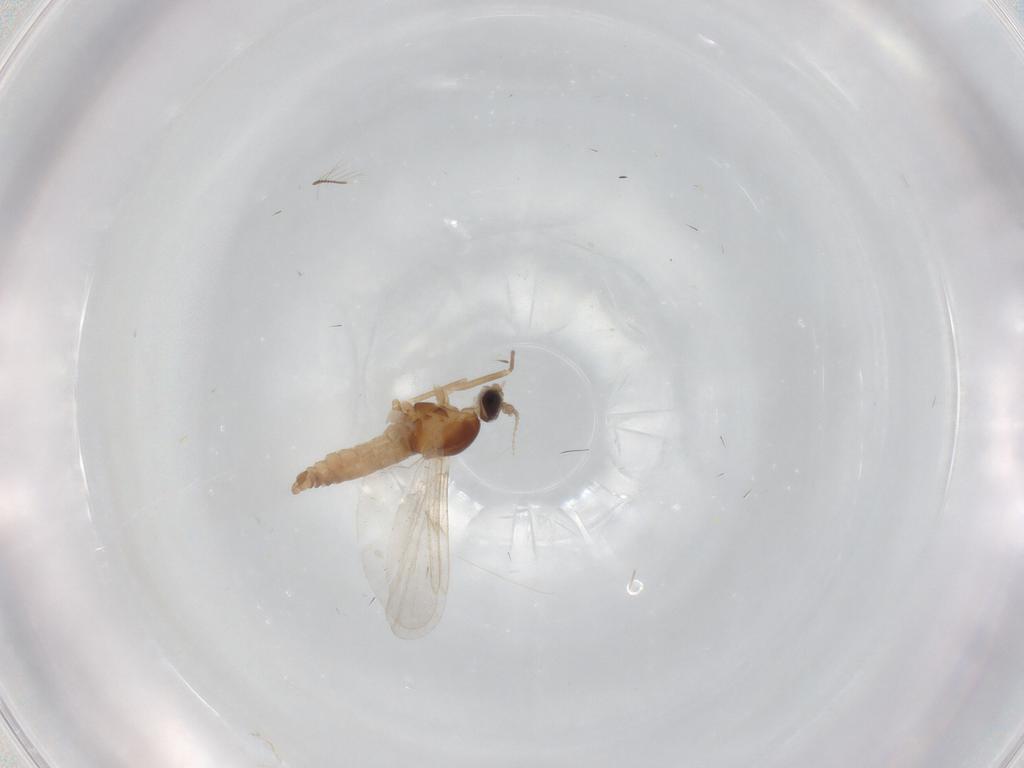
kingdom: Animalia
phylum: Arthropoda
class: Insecta
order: Diptera
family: Cecidomyiidae
